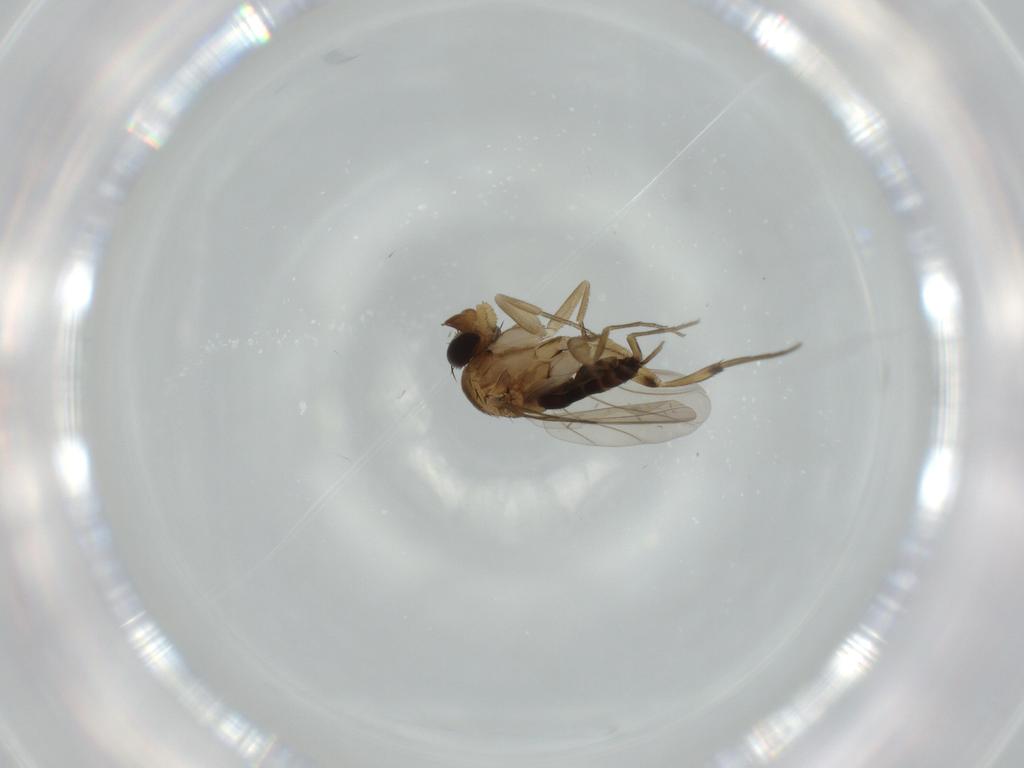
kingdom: Animalia
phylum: Arthropoda
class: Insecta
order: Diptera
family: Phoridae
